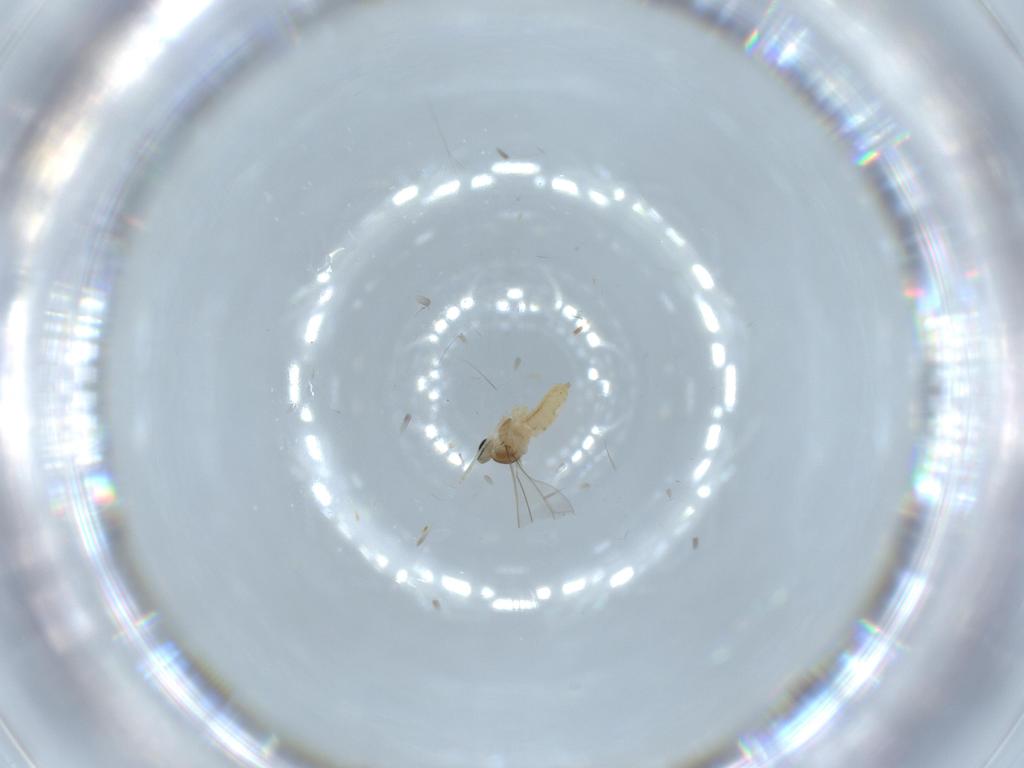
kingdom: Animalia
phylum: Arthropoda
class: Insecta
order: Diptera
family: Cecidomyiidae
